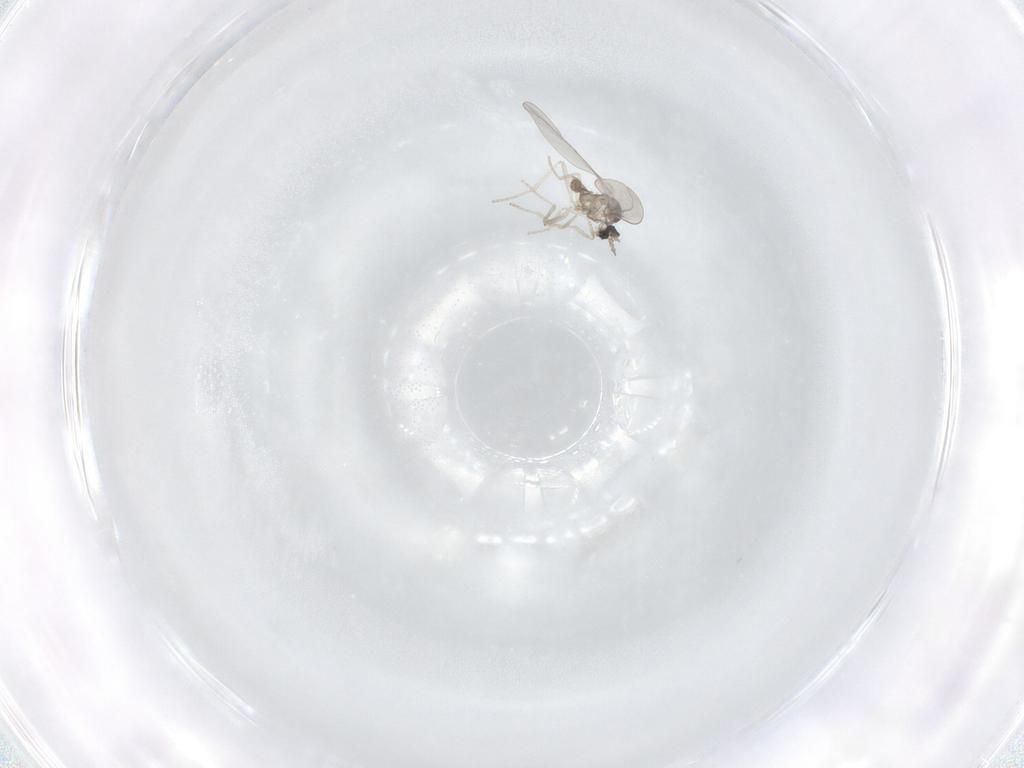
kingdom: Animalia
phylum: Arthropoda
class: Insecta
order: Diptera
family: Cecidomyiidae
